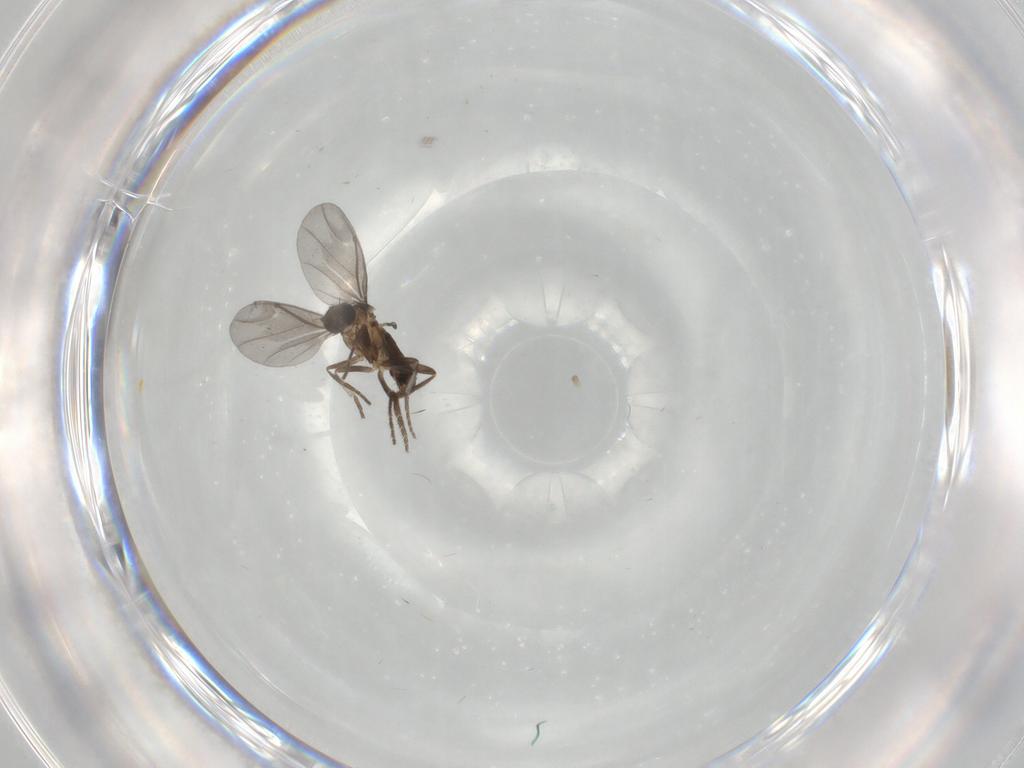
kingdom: Animalia
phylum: Arthropoda
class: Insecta
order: Diptera
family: Phoridae
